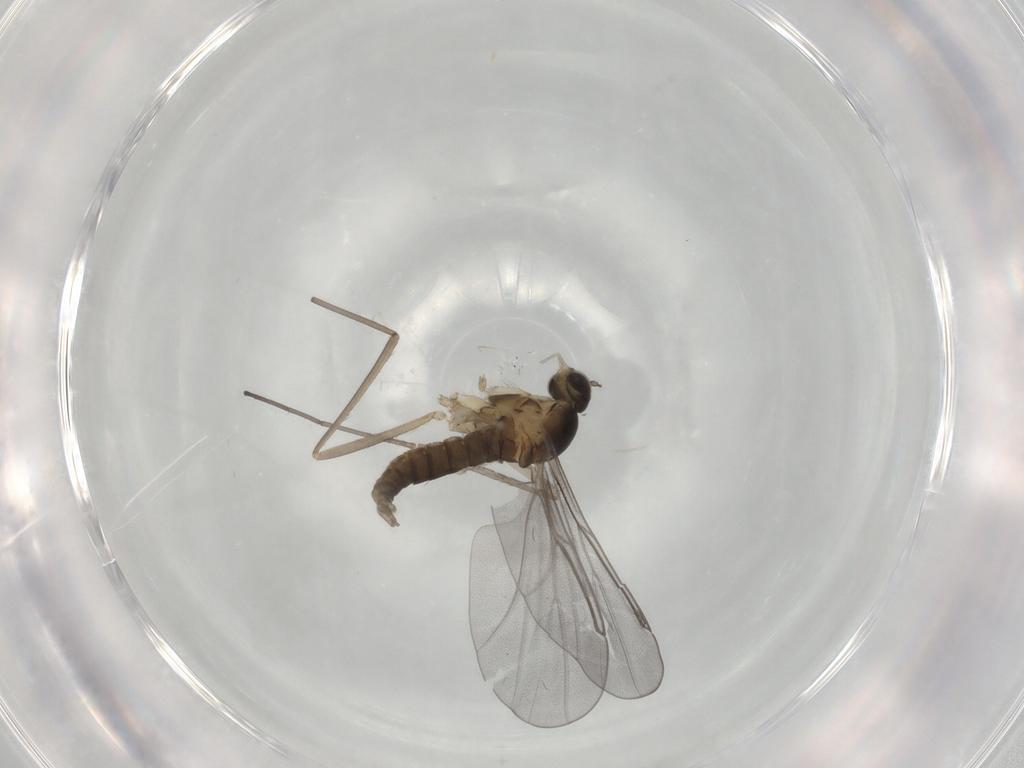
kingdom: Animalia
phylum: Arthropoda
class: Insecta
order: Diptera
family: Cecidomyiidae
